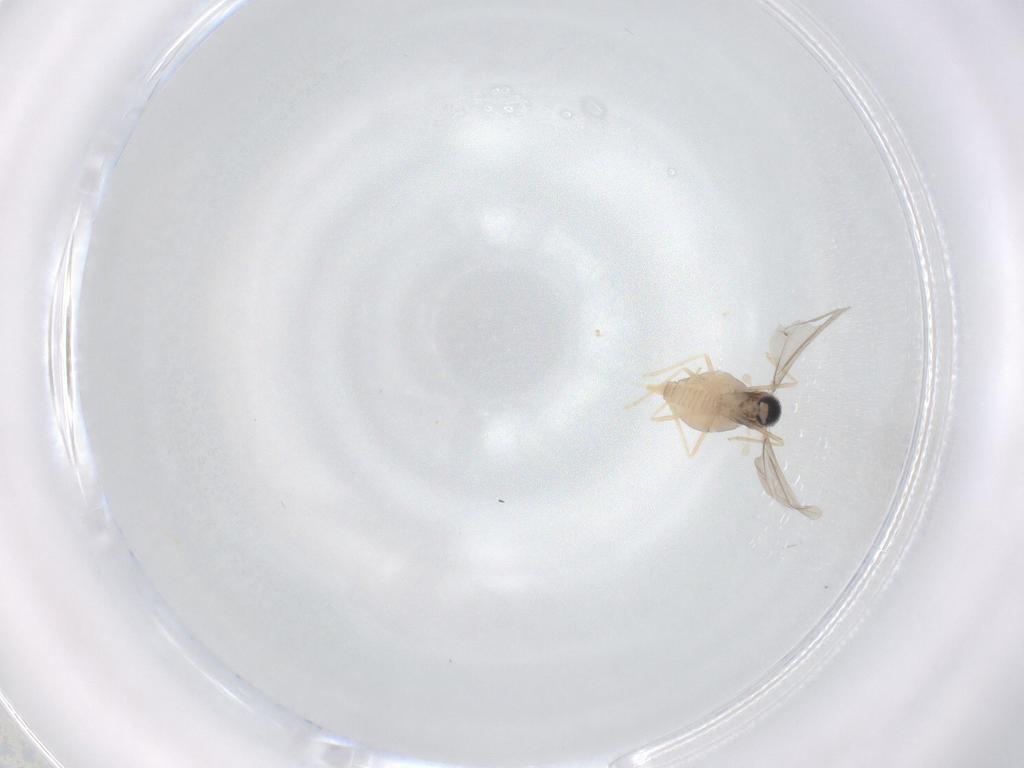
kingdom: Animalia
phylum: Arthropoda
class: Insecta
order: Diptera
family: Cecidomyiidae
